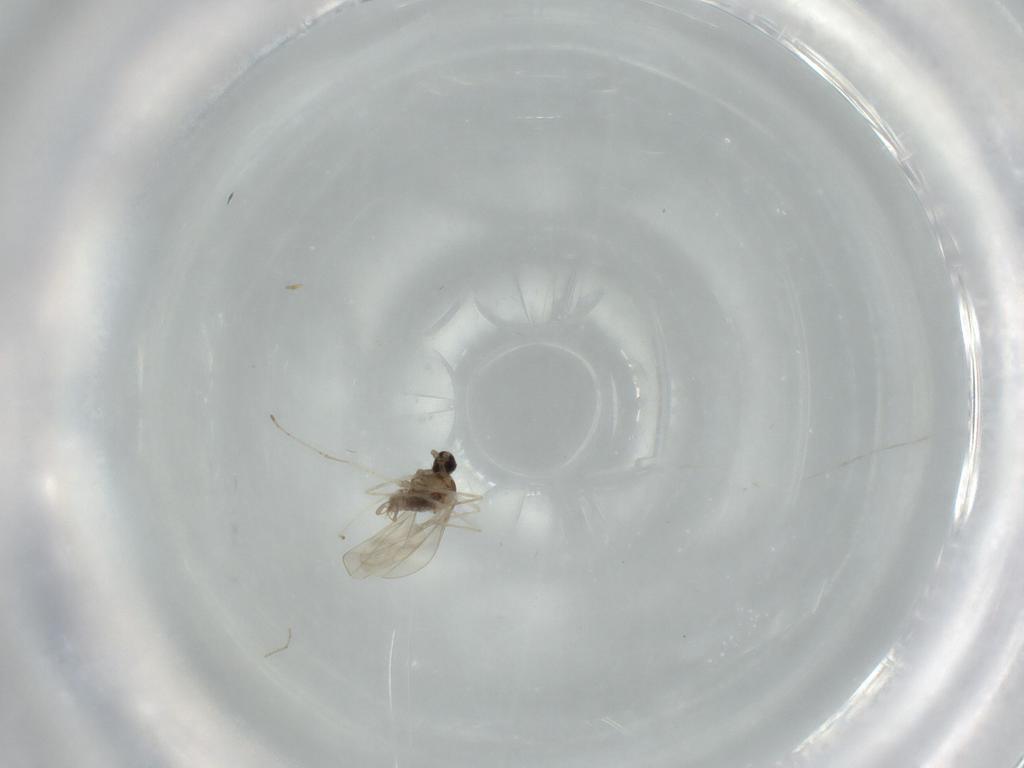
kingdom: Animalia
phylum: Arthropoda
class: Insecta
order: Diptera
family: Cecidomyiidae
